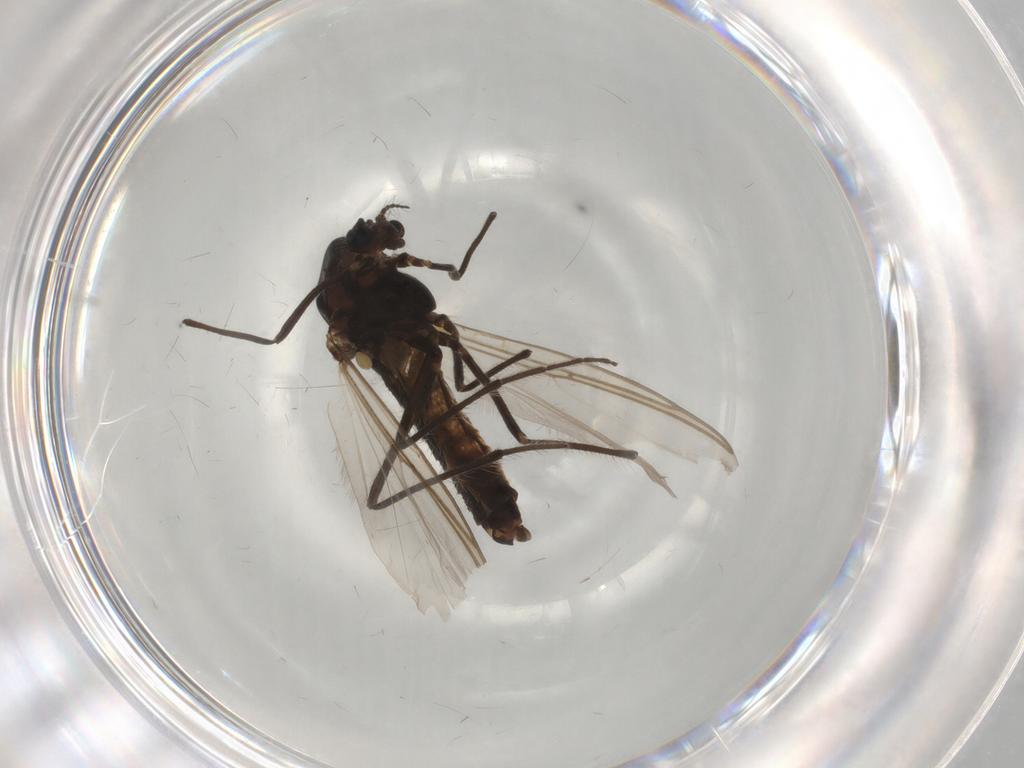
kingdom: Animalia
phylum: Arthropoda
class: Insecta
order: Diptera
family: Chironomidae
